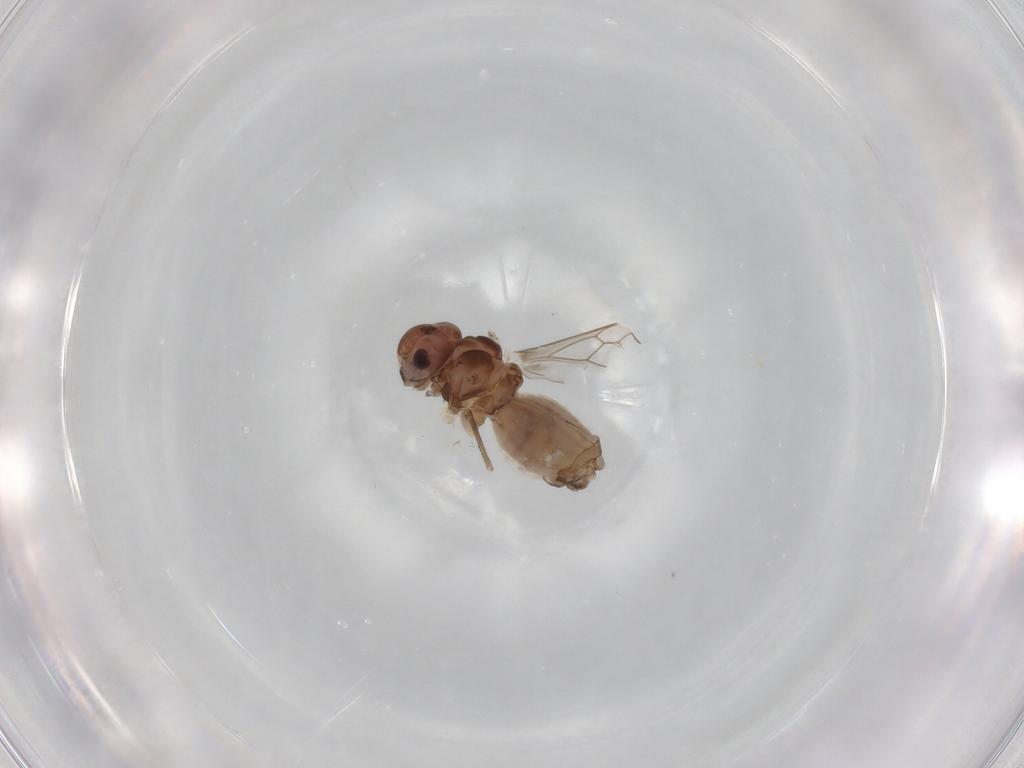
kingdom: Animalia
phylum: Arthropoda
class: Insecta
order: Psocodea
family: Peripsocidae
